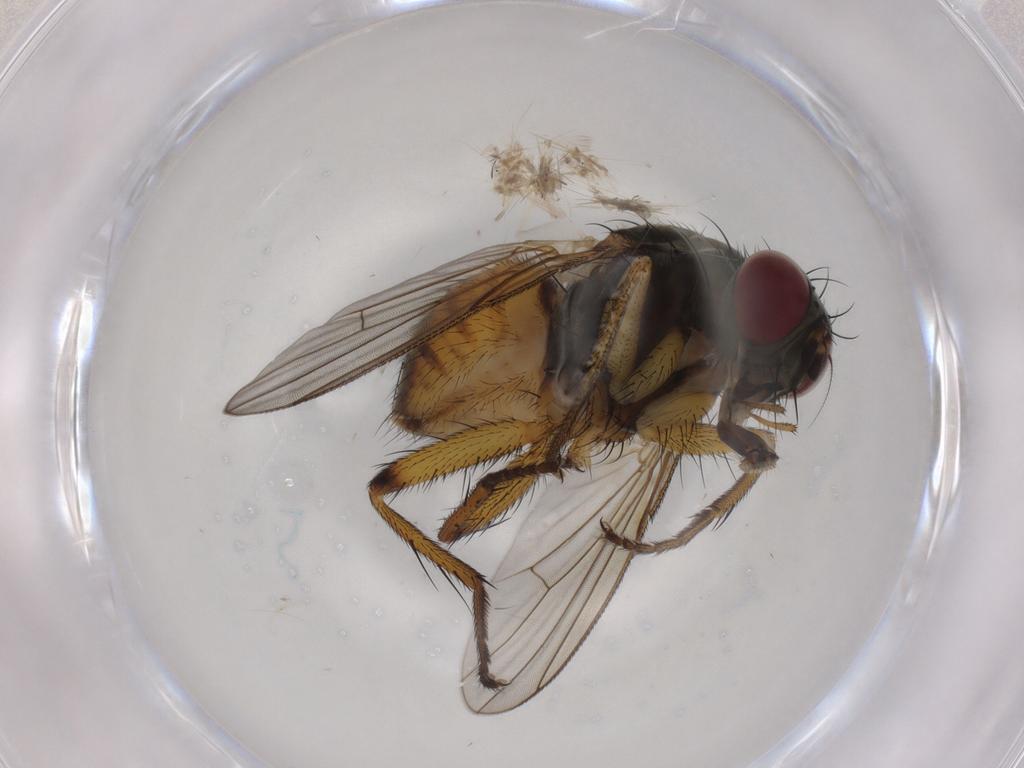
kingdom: Animalia
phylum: Arthropoda
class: Insecta
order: Diptera
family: Muscidae
